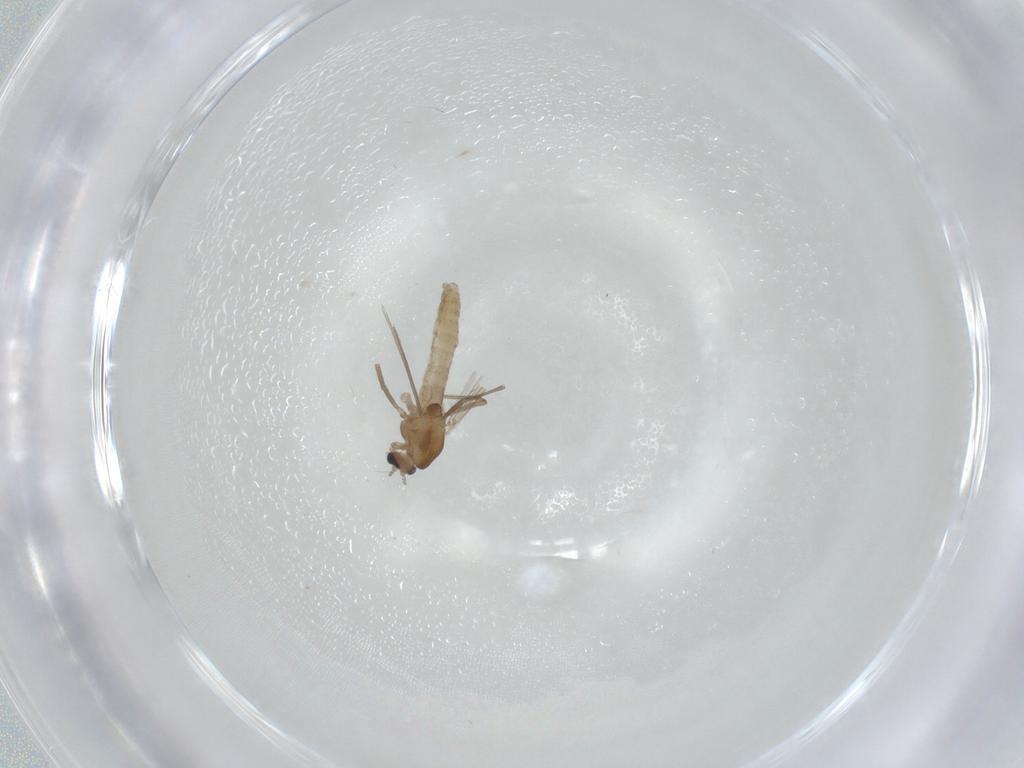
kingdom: Animalia
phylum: Arthropoda
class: Insecta
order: Diptera
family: Chironomidae
